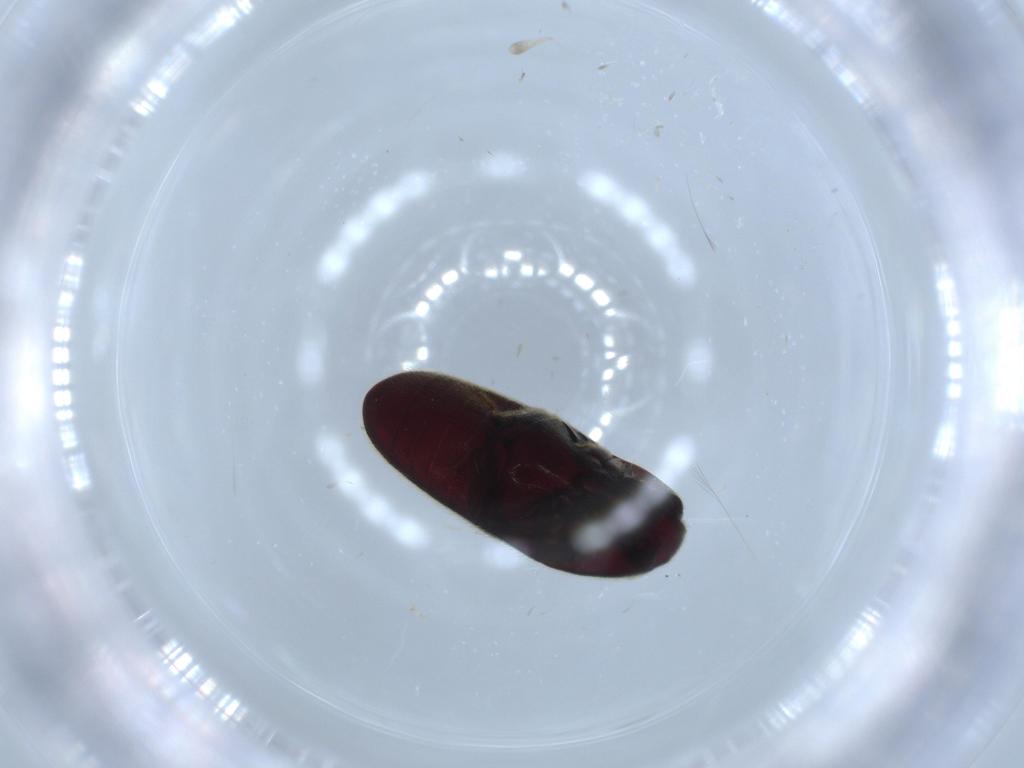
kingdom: Animalia
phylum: Arthropoda
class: Insecta
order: Coleoptera
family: Throscidae
